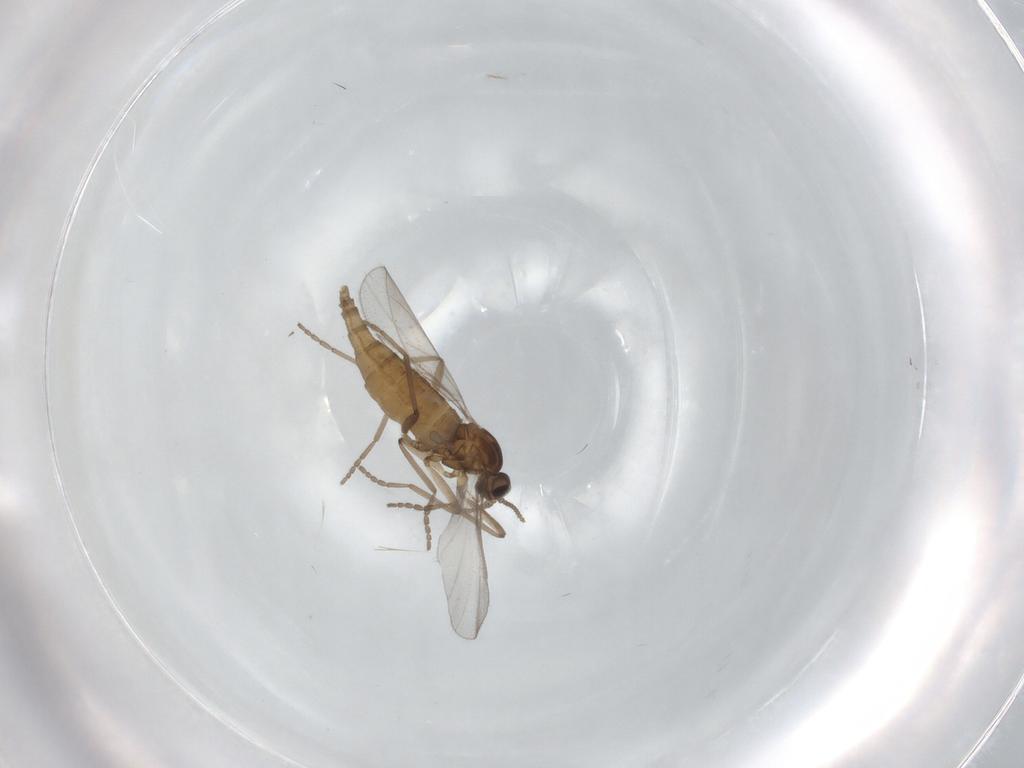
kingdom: Animalia
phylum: Arthropoda
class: Insecta
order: Diptera
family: Cecidomyiidae
